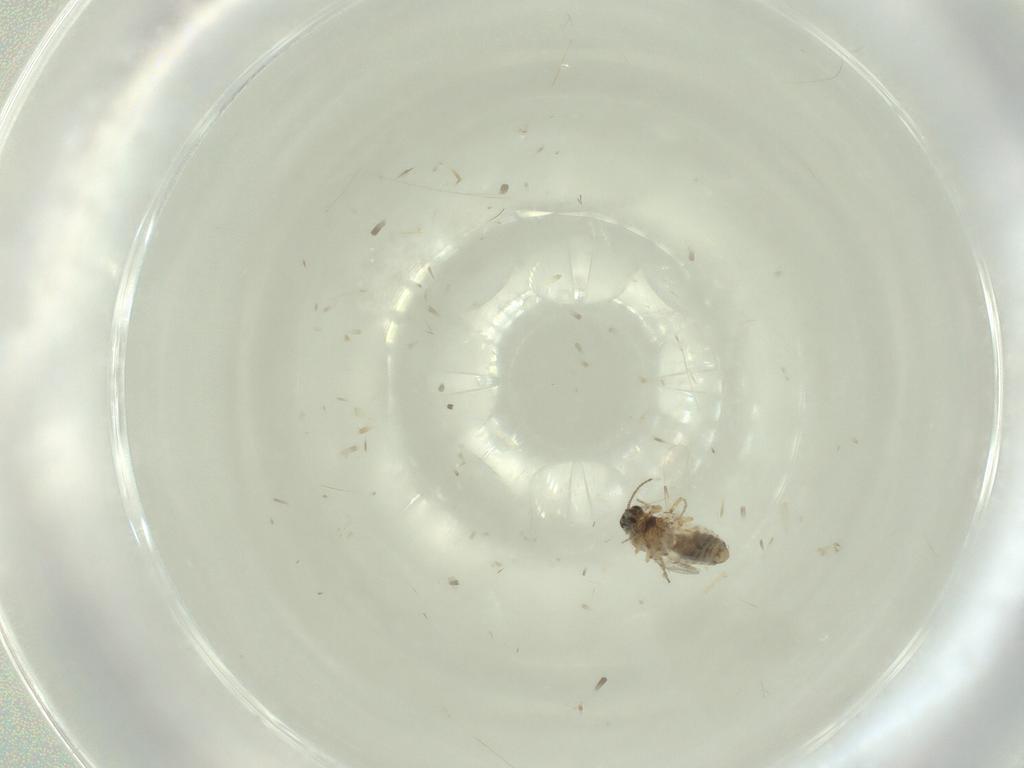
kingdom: Animalia
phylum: Arthropoda
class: Insecta
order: Diptera
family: Ceratopogonidae
